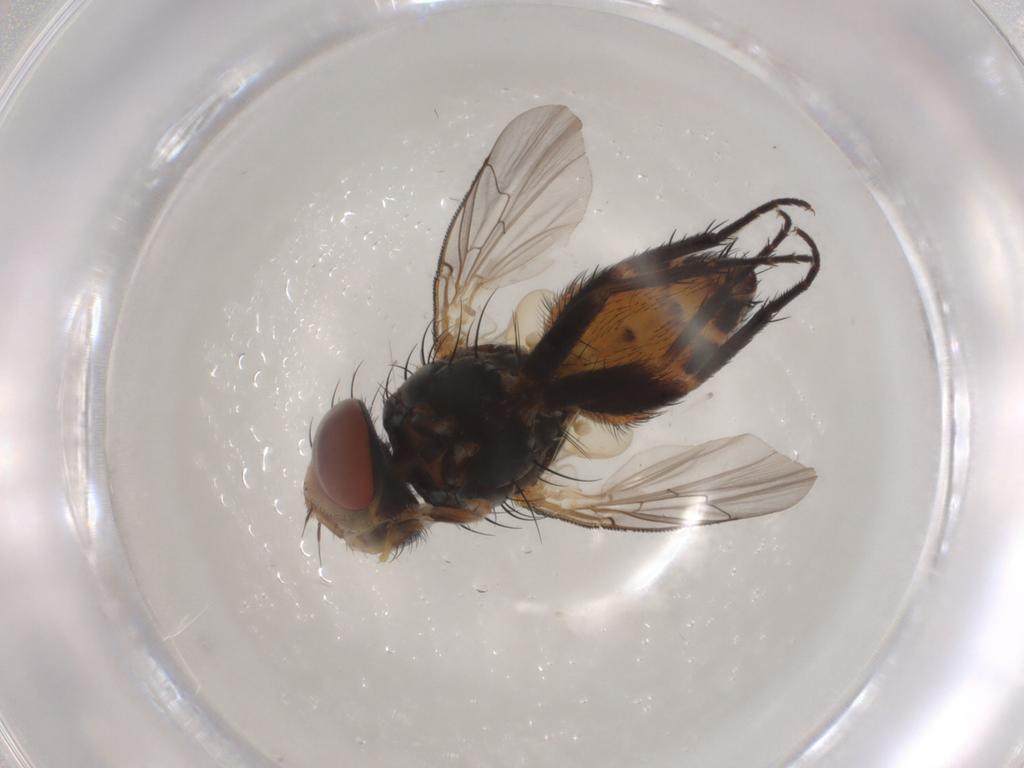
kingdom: Animalia
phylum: Arthropoda
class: Insecta
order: Diptera
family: Sarcophagidae
